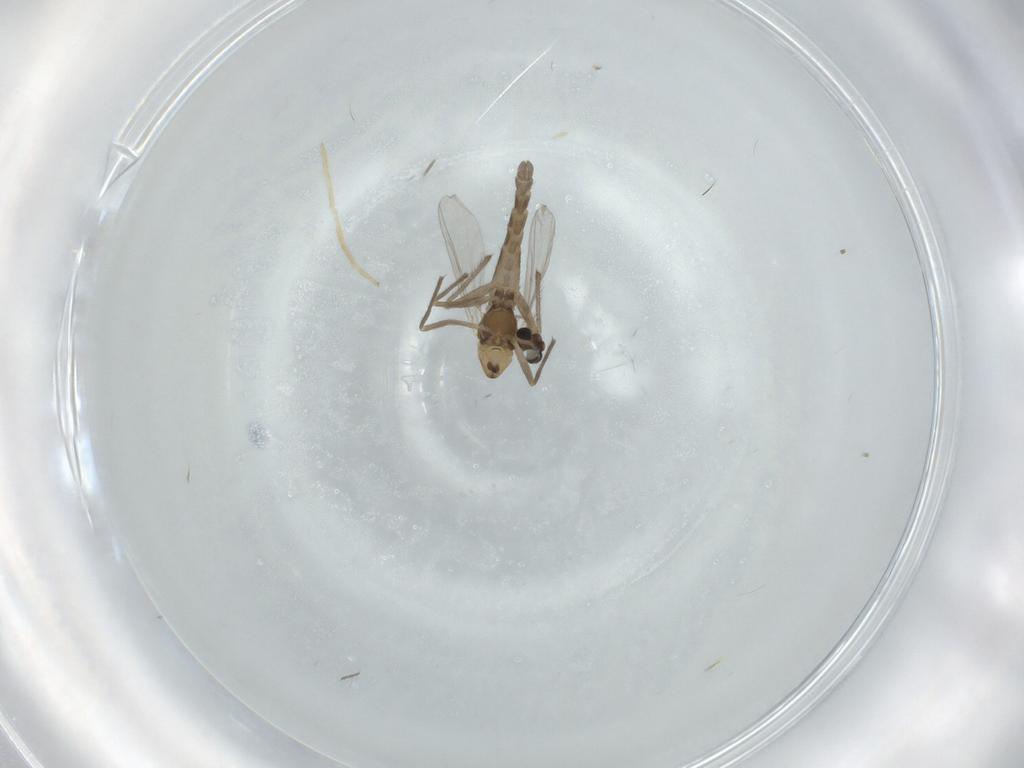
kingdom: Animalia
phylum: Arthropoda
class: Insecta
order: Diptera
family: Chironomidae
